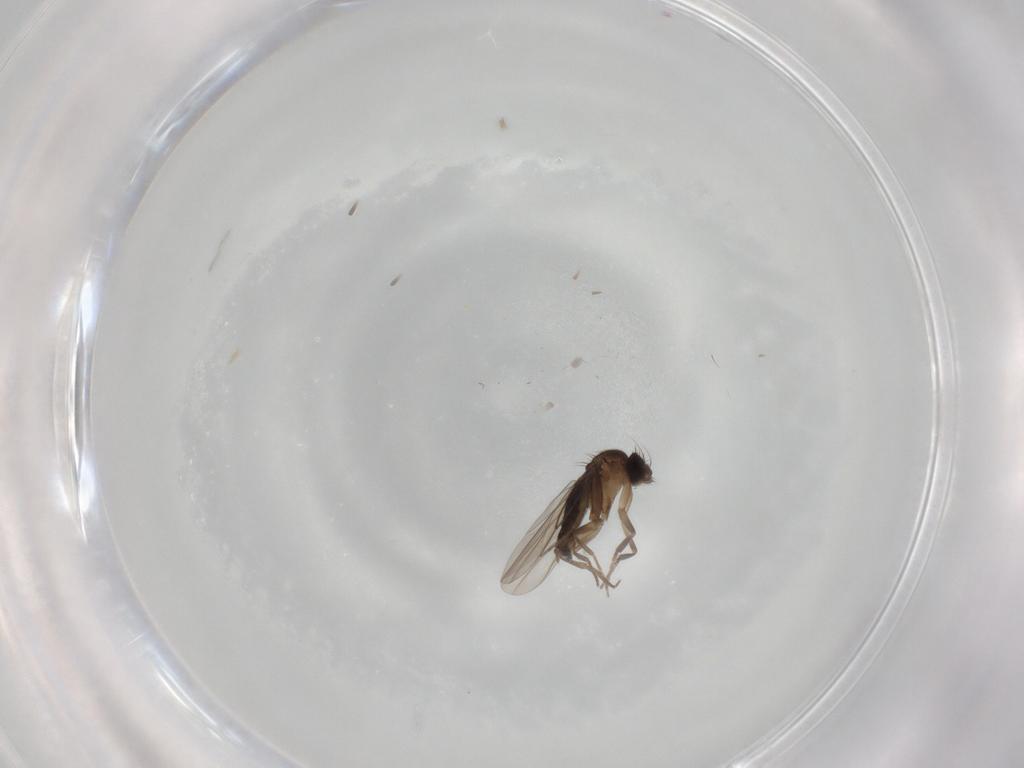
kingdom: Animalia
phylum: Arthropoda
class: Insecta
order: Diptera
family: Phoridae
